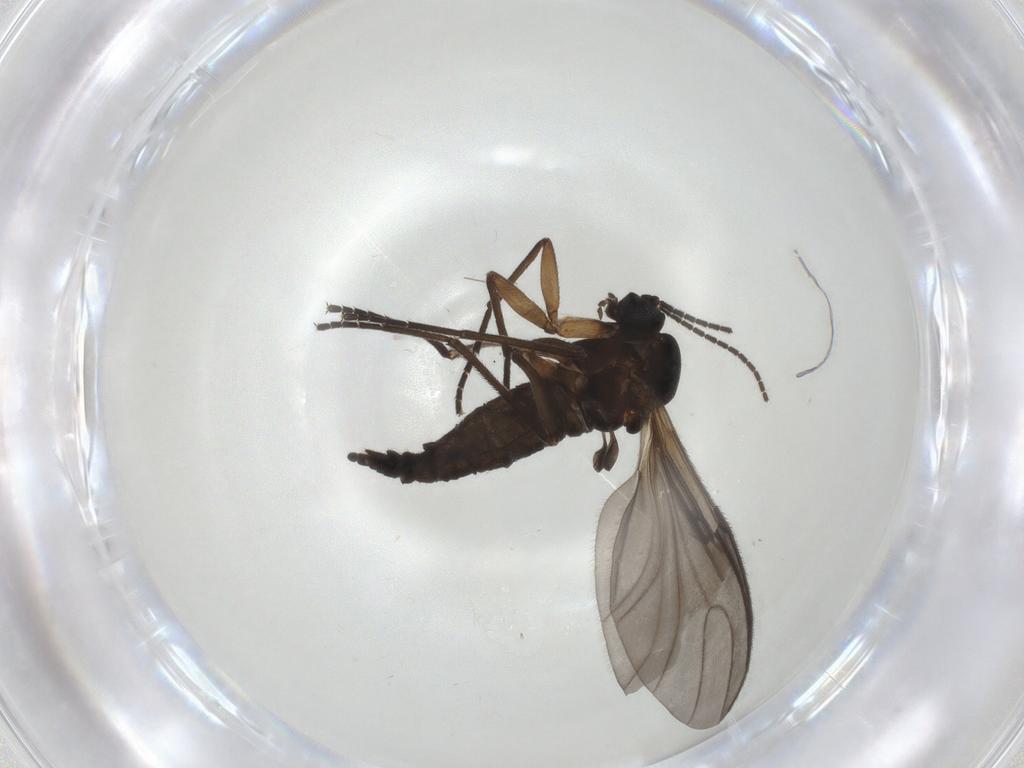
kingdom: Animalia
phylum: Arthropoda
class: Insecta
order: Diptera
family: Sciaridae
